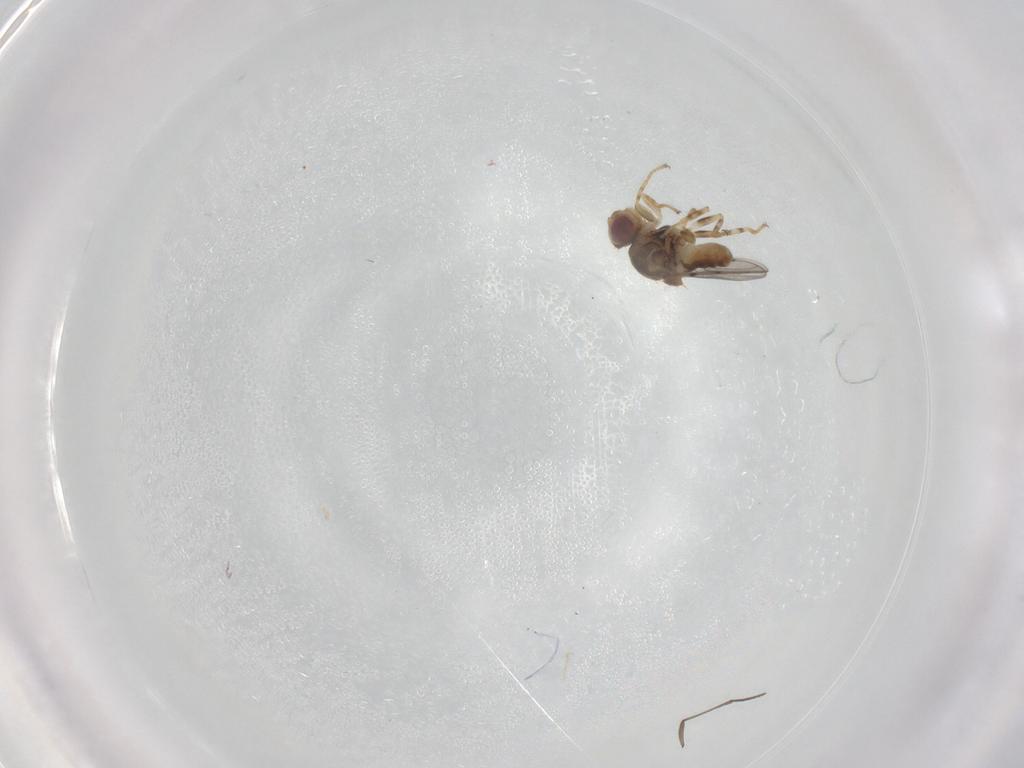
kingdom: Animalia
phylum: Arthropoda
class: Insecta
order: Diptera
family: Chloropidae
